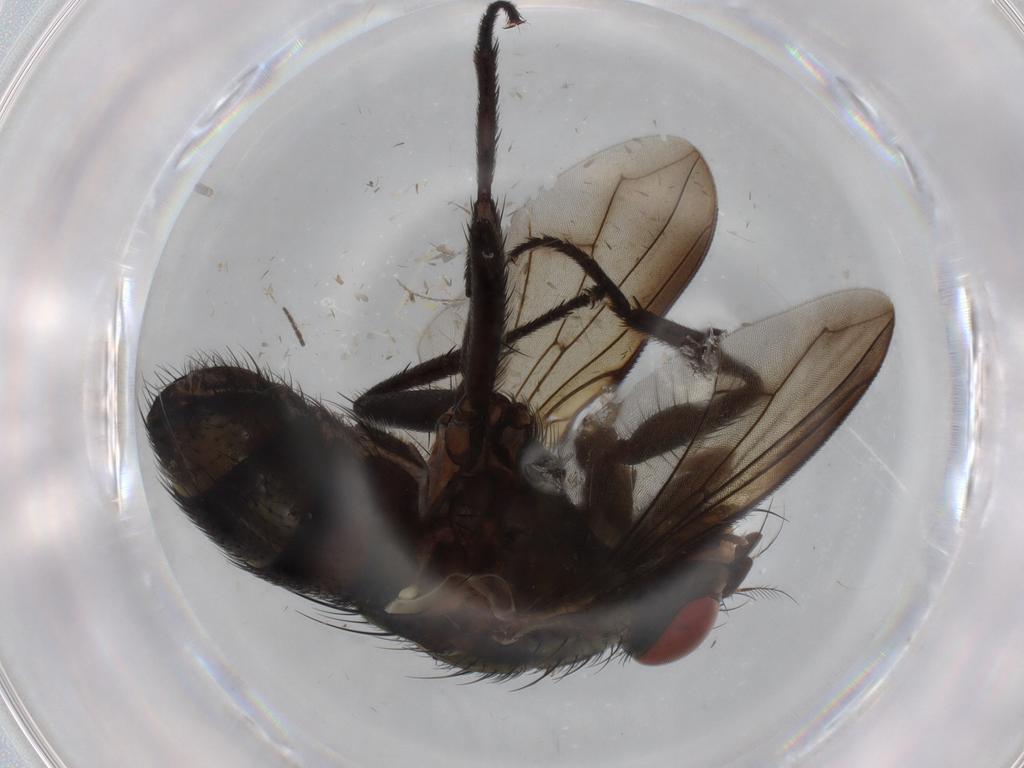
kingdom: Animalia
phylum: Arthropoda
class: Insecta
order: Diptera
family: Sarcophagidae
